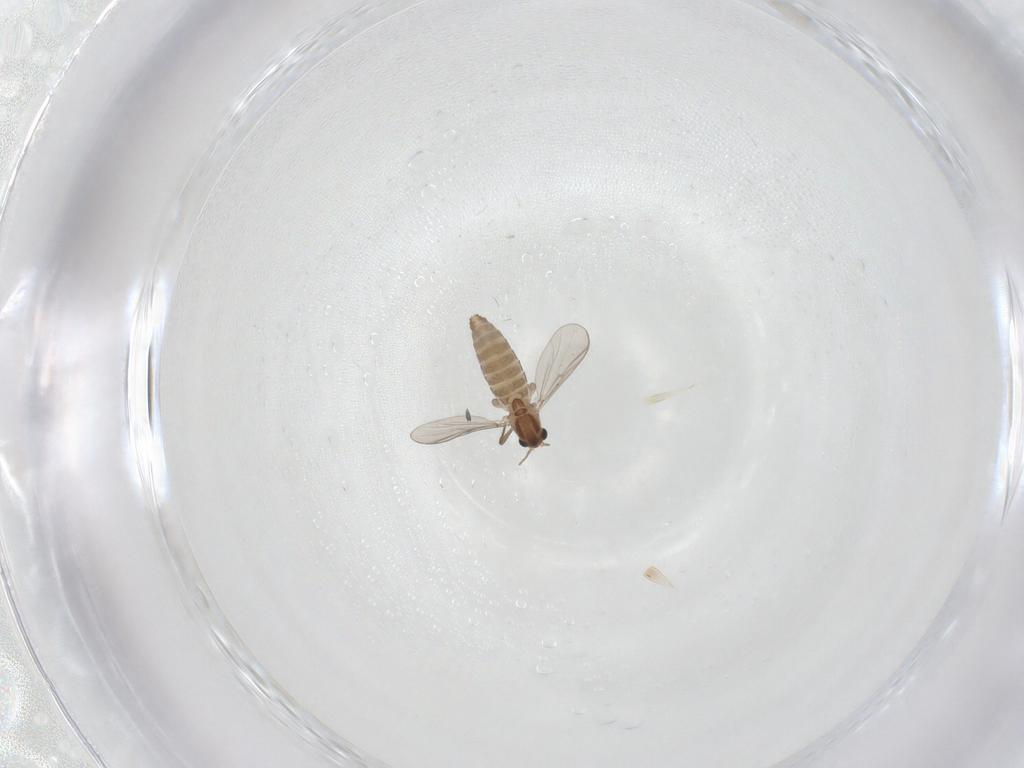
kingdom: Animalia
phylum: Arthropoda
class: Insecta
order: Diptera
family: Chironomidae
